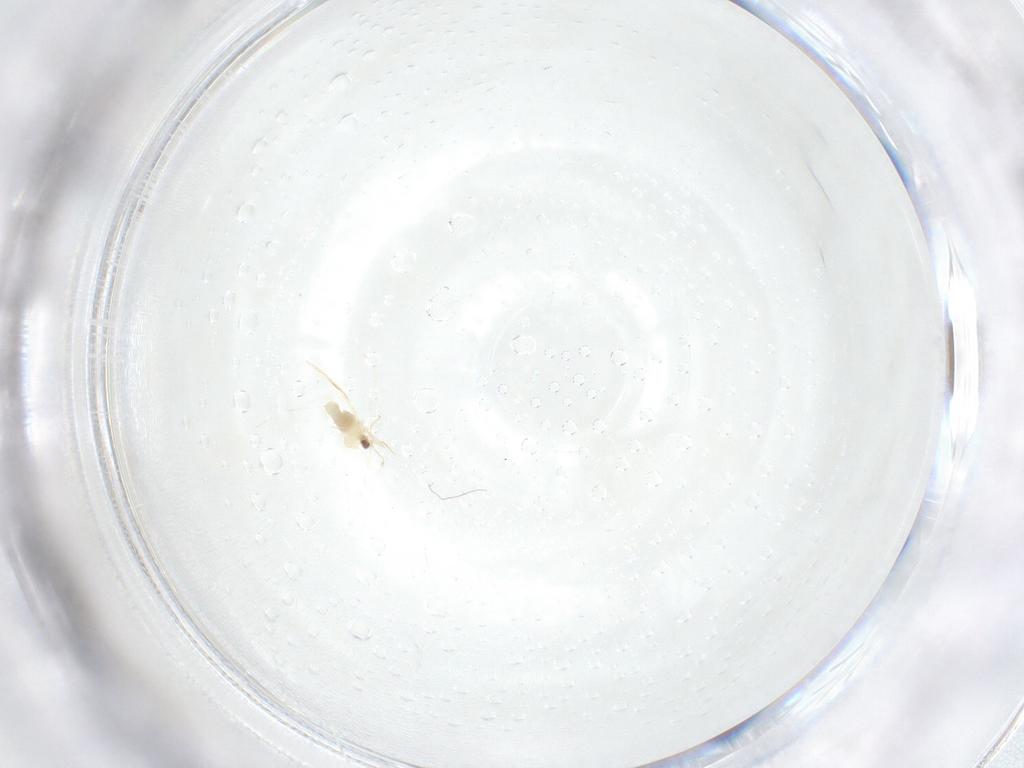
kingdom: Animalia
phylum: Arthropoda
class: Insecta
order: Diptera
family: Cecidomyiidae
